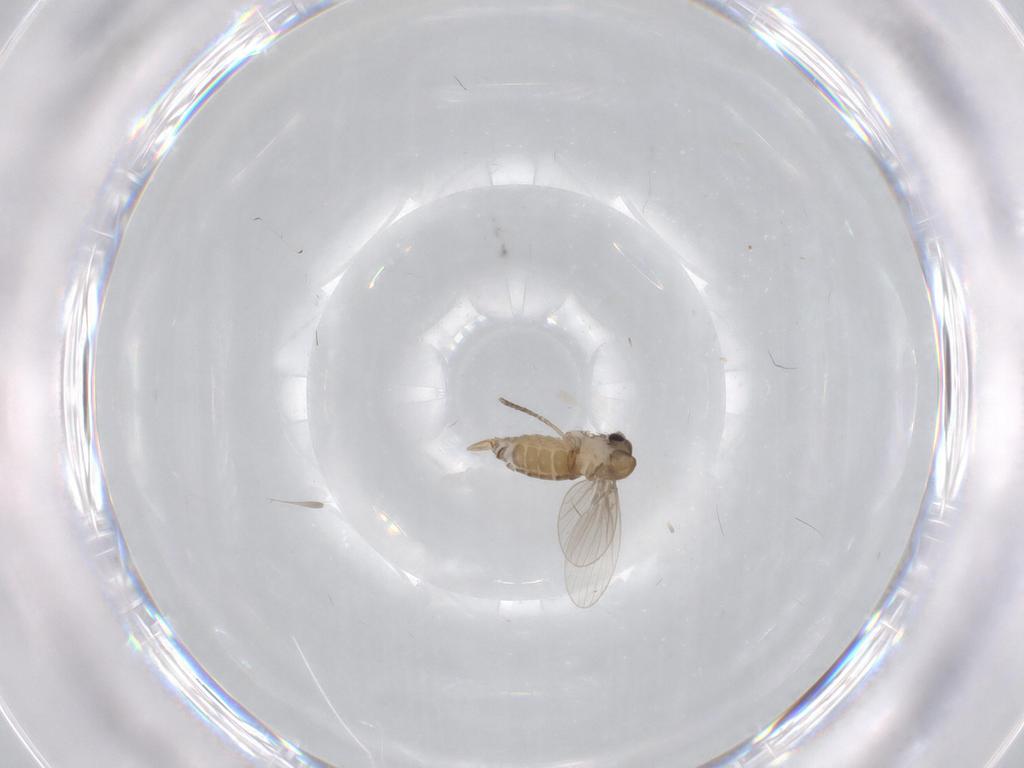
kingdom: Animalia
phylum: Arthropoda
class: Insecta
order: Diptera
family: Psychodidae
